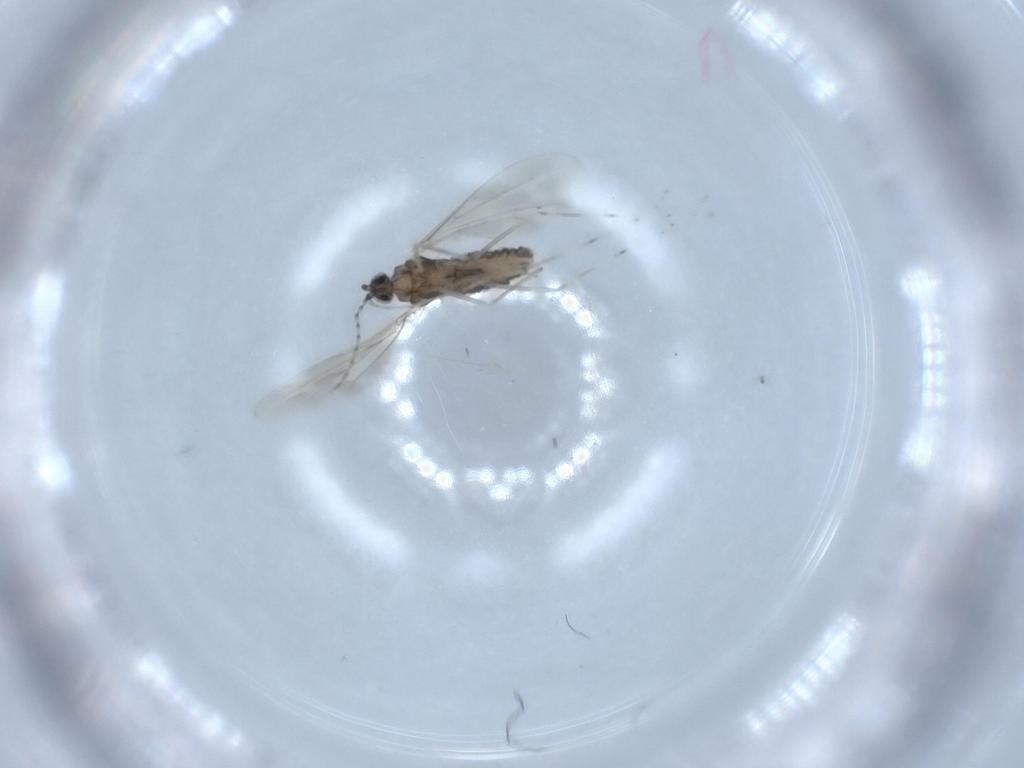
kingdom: Animalia
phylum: Arthropoda
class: Insecta
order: Diptera
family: Cecidomyiidae
